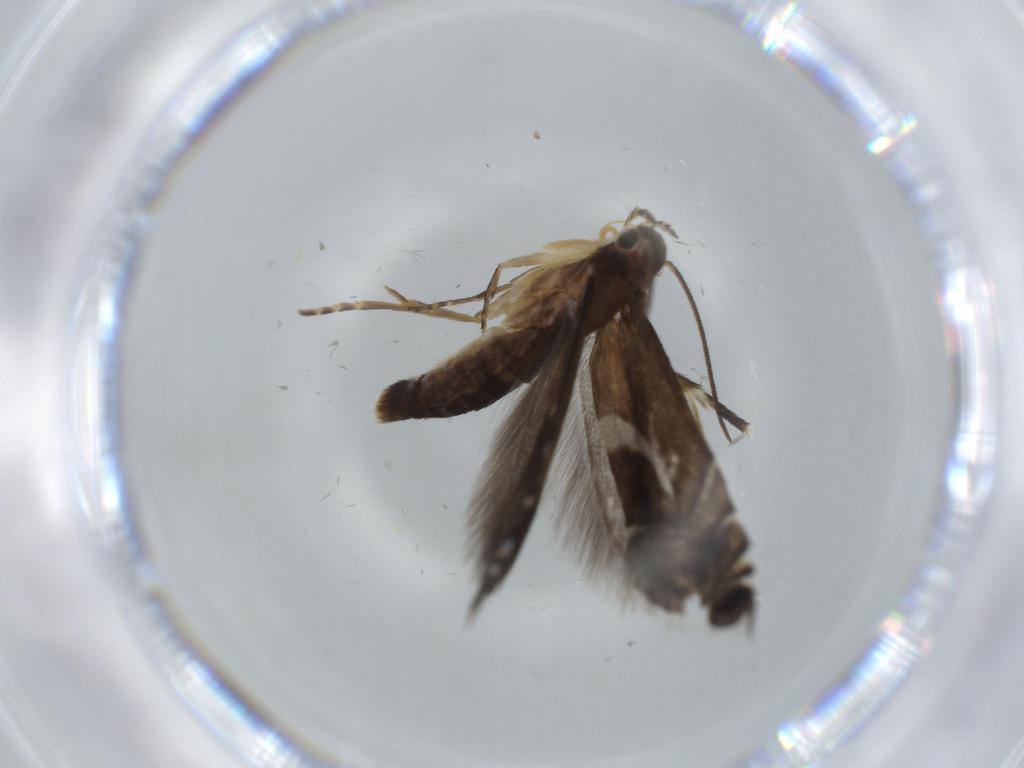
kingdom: Animalia
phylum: Arthropoda
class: Insecta
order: Lepidoptera
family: Glyphipterigidae
